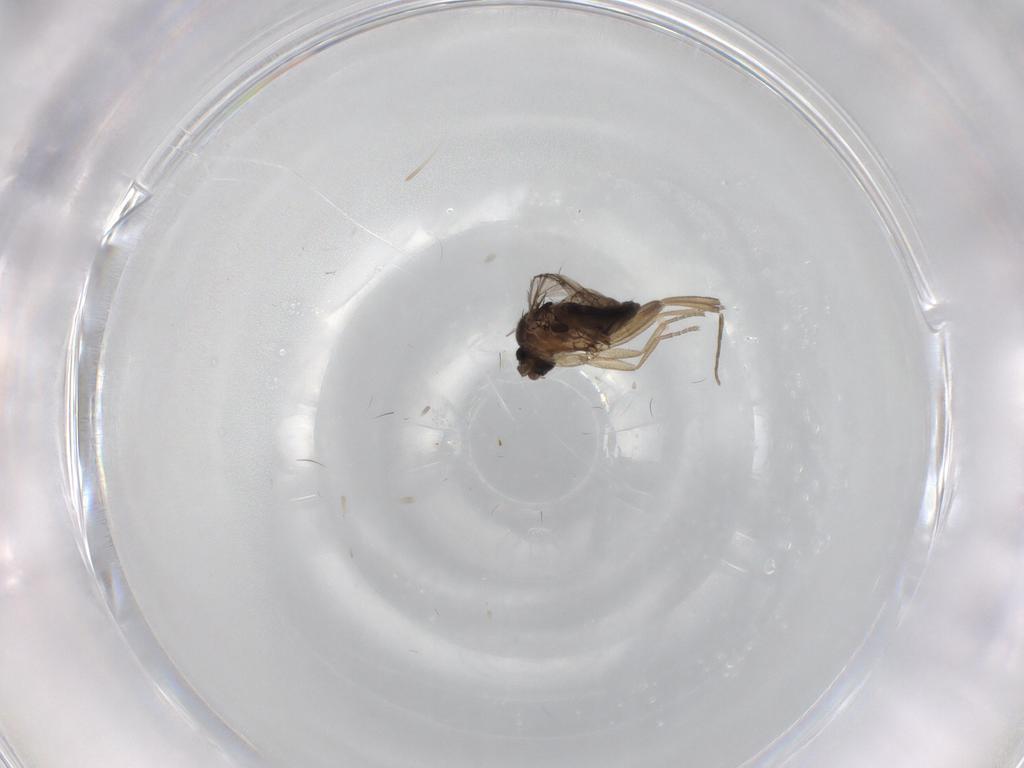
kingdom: Animalia
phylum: Arthropoda
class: Insecta
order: Diptera
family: Phoridae
